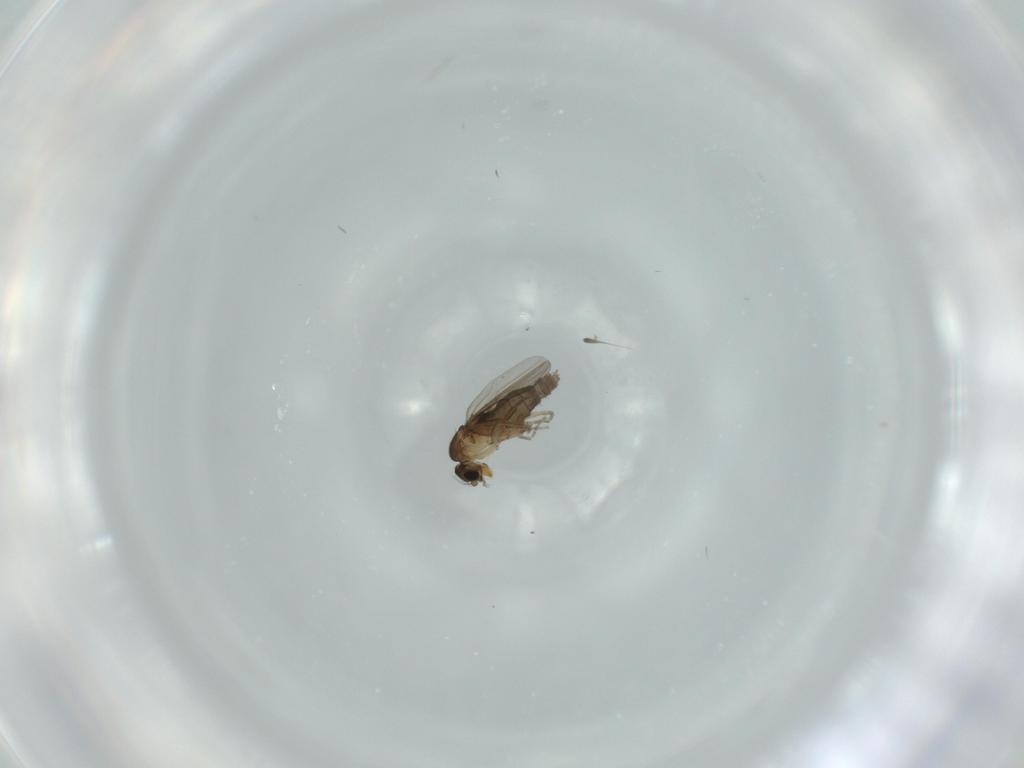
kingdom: Animalia
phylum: Arthropoda
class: Insecta
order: Diptera
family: Phoridae
